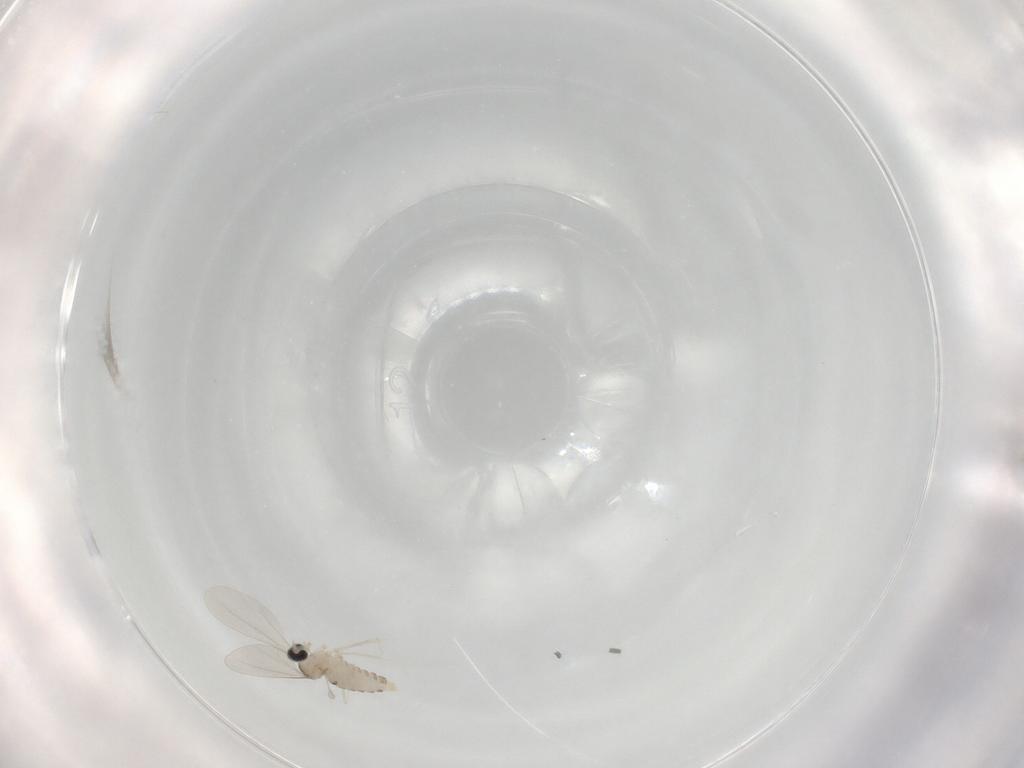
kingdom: Animalia
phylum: Arthropoda
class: Insecta
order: Diptera
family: Cecidomyiidae
